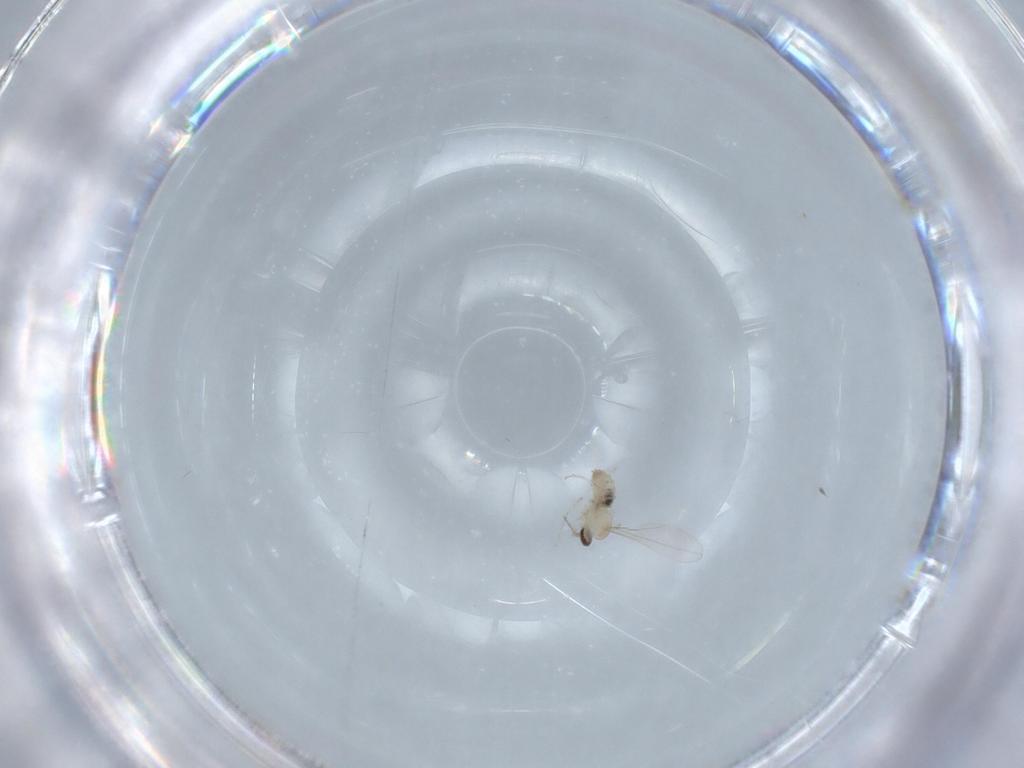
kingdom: Animalia
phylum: Arthropoda
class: Insecta
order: Diptera
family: Cecidomyiidae
